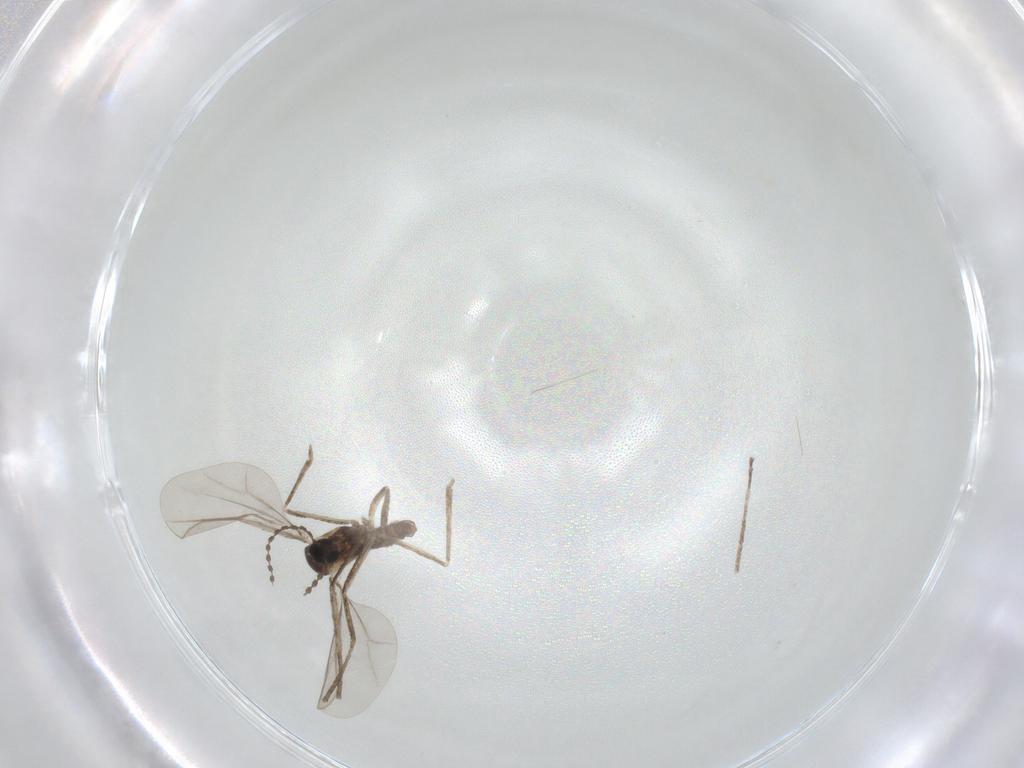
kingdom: Animalia
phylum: Arthropoda
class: Insecta
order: Diptera
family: Cecidomyiidae
